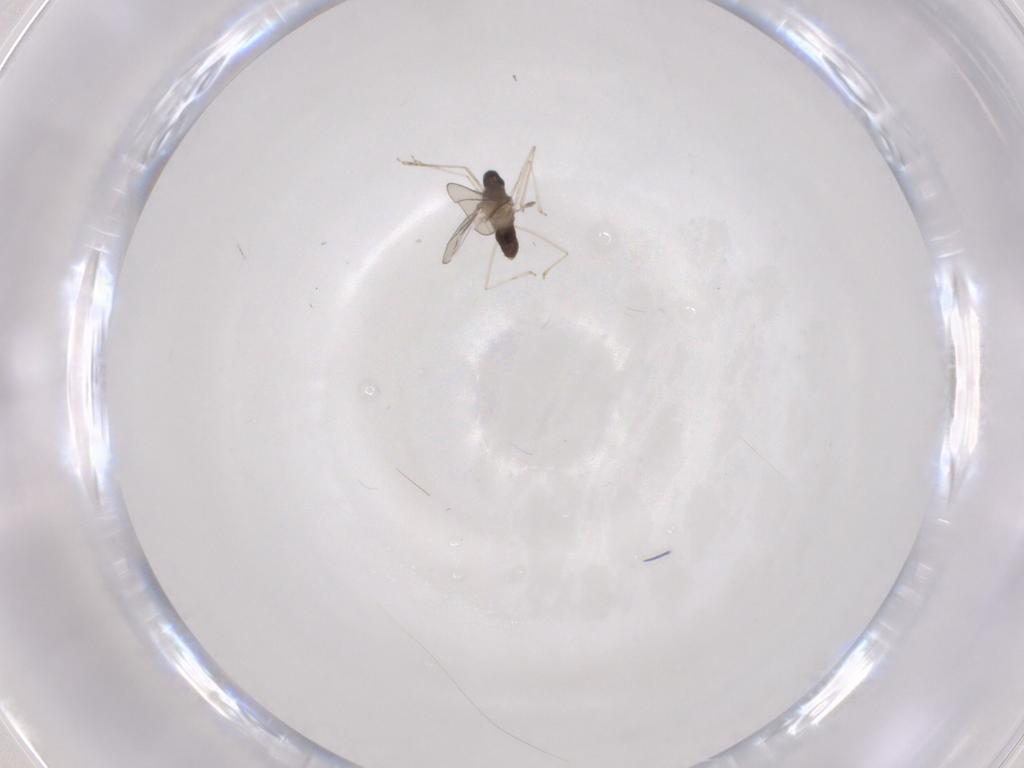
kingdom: Animalia
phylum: Arthropoda
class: Insecta
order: Diptera
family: Cecidomyiidae
